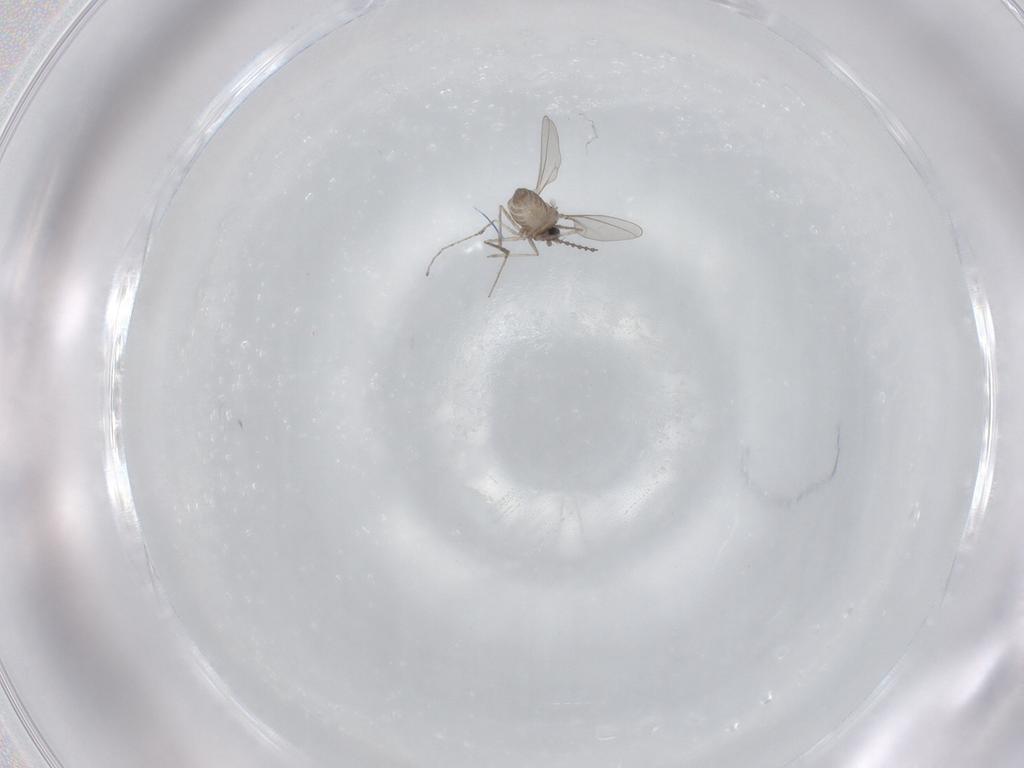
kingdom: Animalia
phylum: Arthropoda
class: Insecta
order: Diptera
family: Cecidomyiidae
